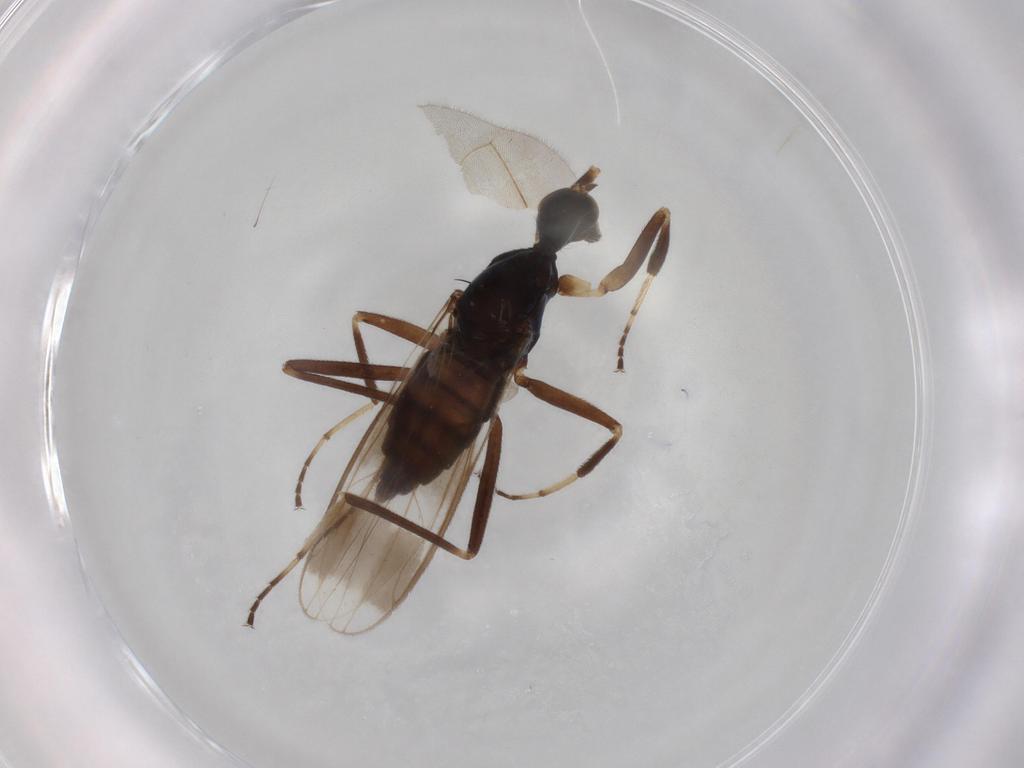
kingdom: Animalia
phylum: Arthropoda
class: Insecta
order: Diptera
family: Hybotidae
